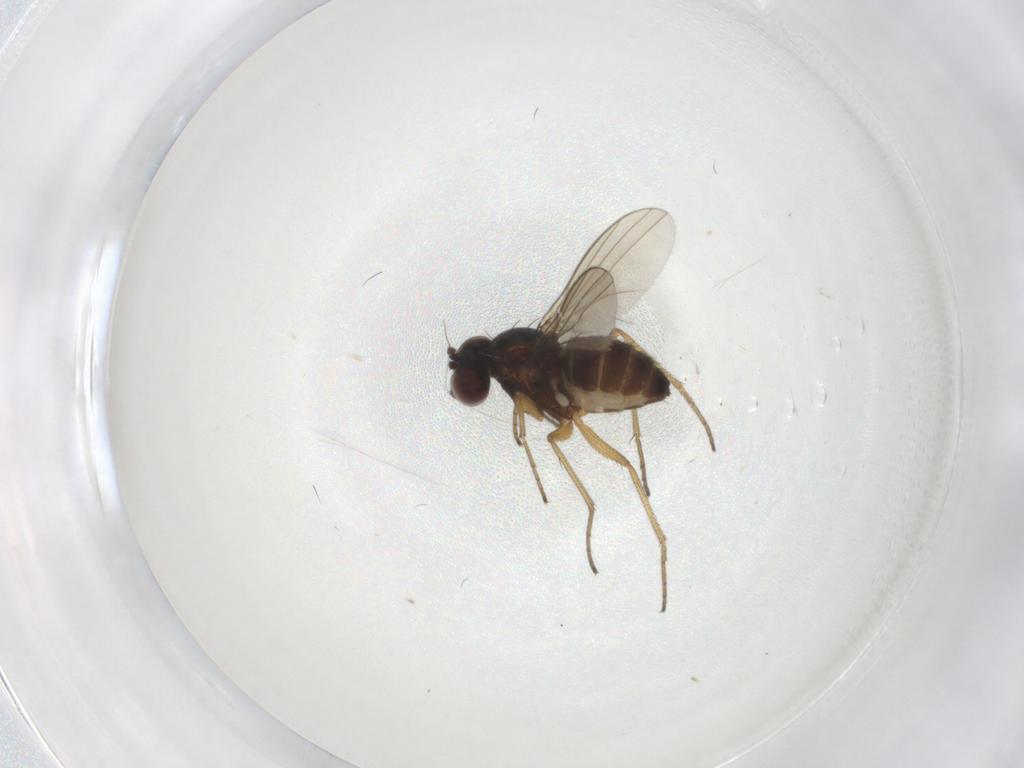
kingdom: Animalia
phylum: Arthropoda
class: Insecta
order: Diptera
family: Dolichopodidae
